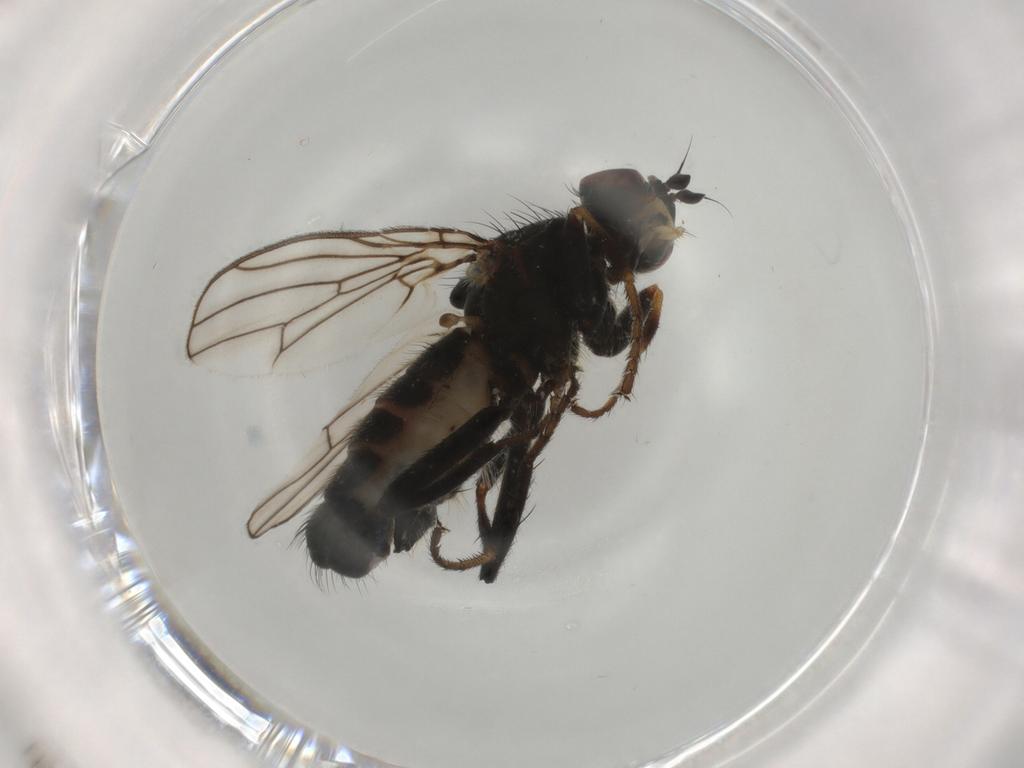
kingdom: Animalia
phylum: Arthropoda
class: Insecta
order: Diptera
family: Scathophagidae
